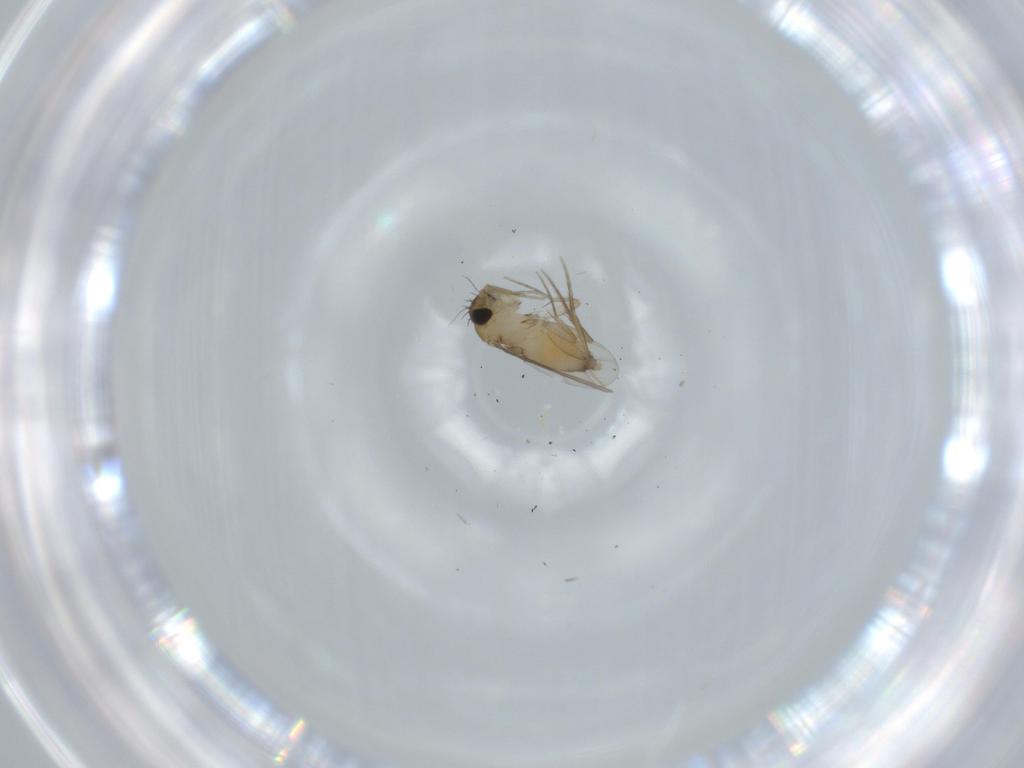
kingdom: Animalia
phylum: Arthropoda
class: Insecta
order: Diptera
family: Phoridae
